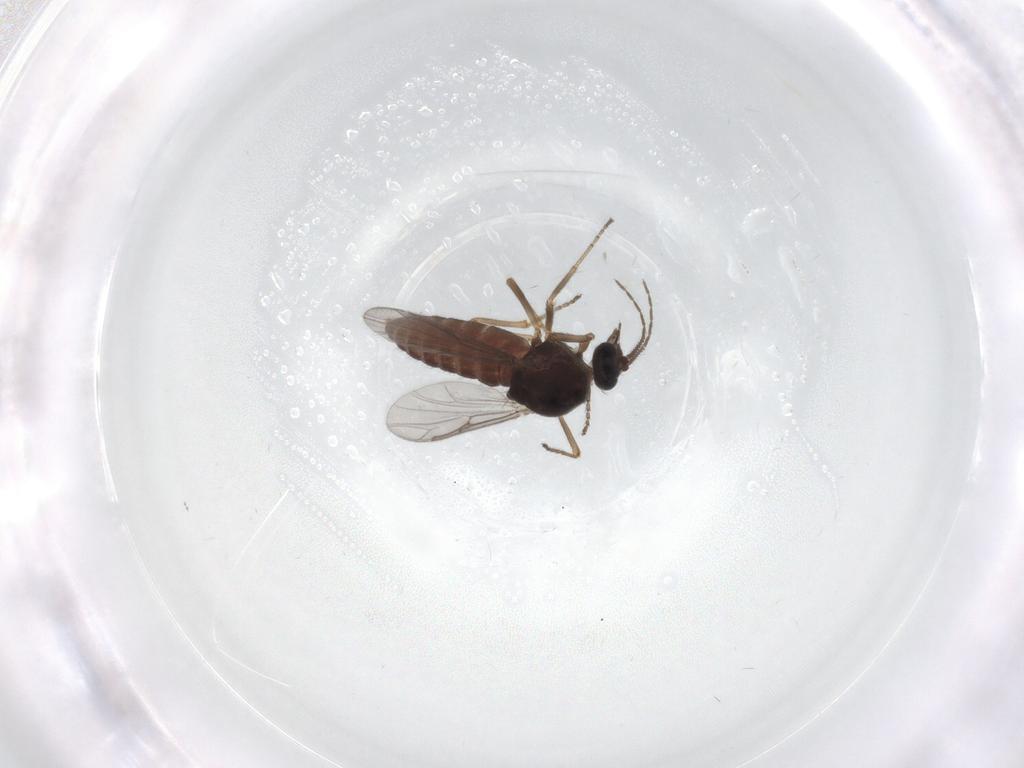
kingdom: Animalia
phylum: Arthropoda
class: Insecta
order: Diptera
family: Ceratopogonidae
